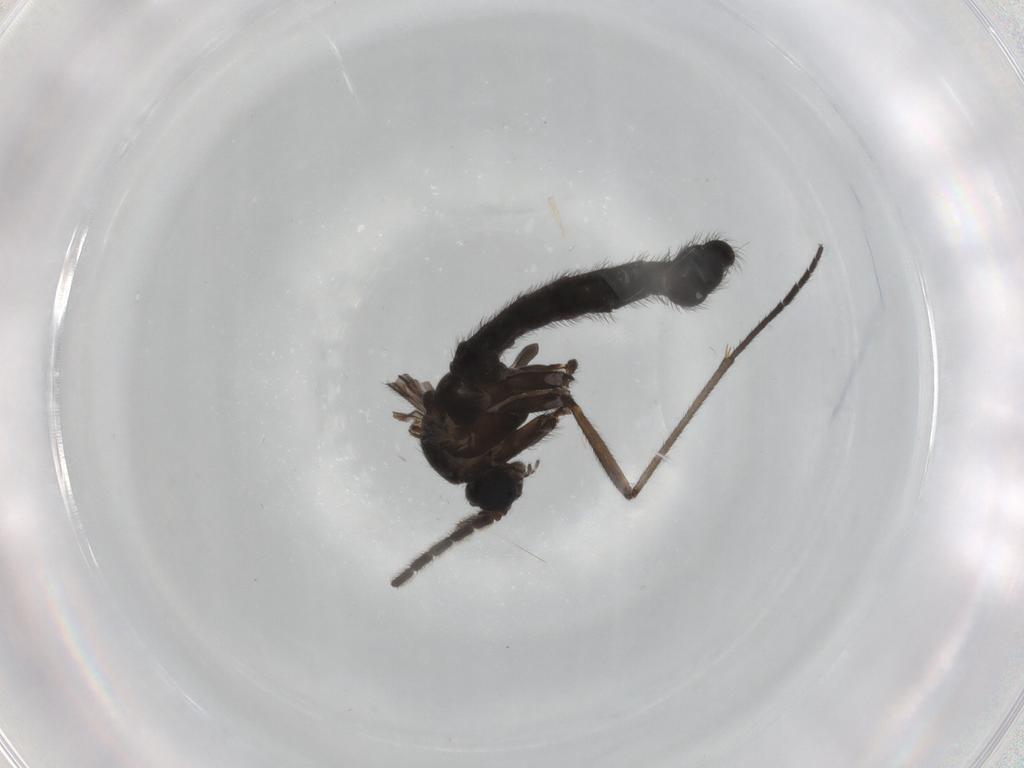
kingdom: Animalia
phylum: Arthropoda
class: Insecta
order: Diptera
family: Sciaridae
